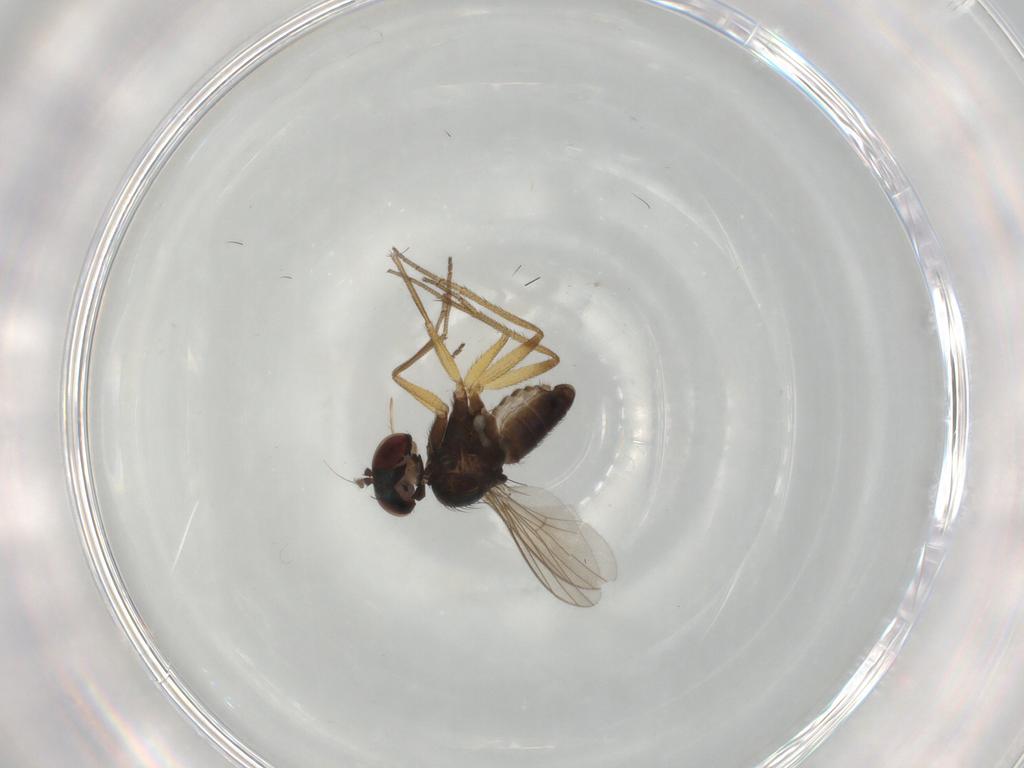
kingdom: Animalia
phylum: Arthropoda
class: Insecta
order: Diptera
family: Dolichopodidae
